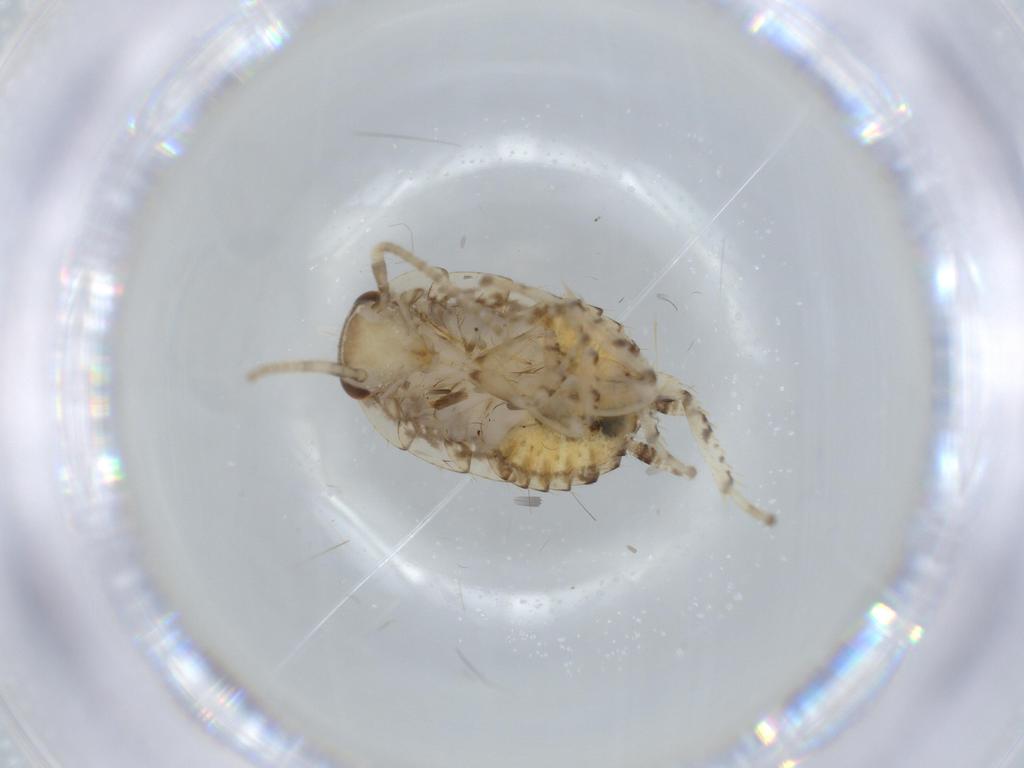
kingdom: Animalia
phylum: Arthropoda
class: Insecta
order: Blattodea
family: Ectobiidae
